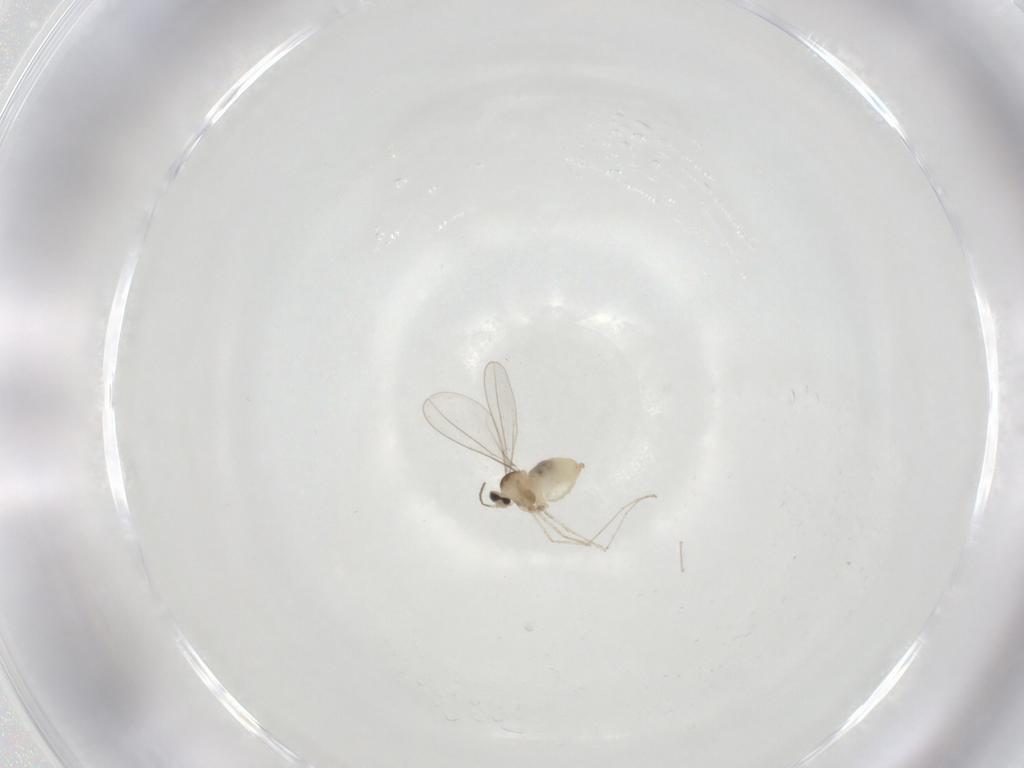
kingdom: Animalia
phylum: Arthropoda
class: Insecta
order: Diptera
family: Cecidomyiidae
